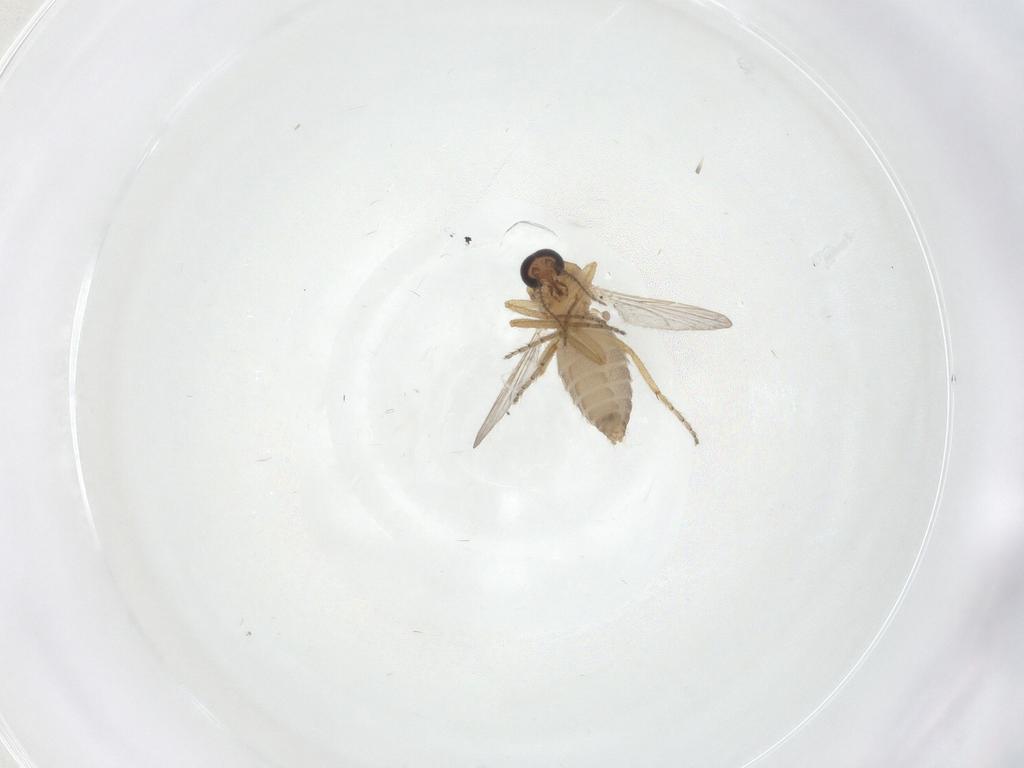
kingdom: Animalia
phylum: Arthropoda
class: Insecta
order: Diptera
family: Ceratopogonidae
